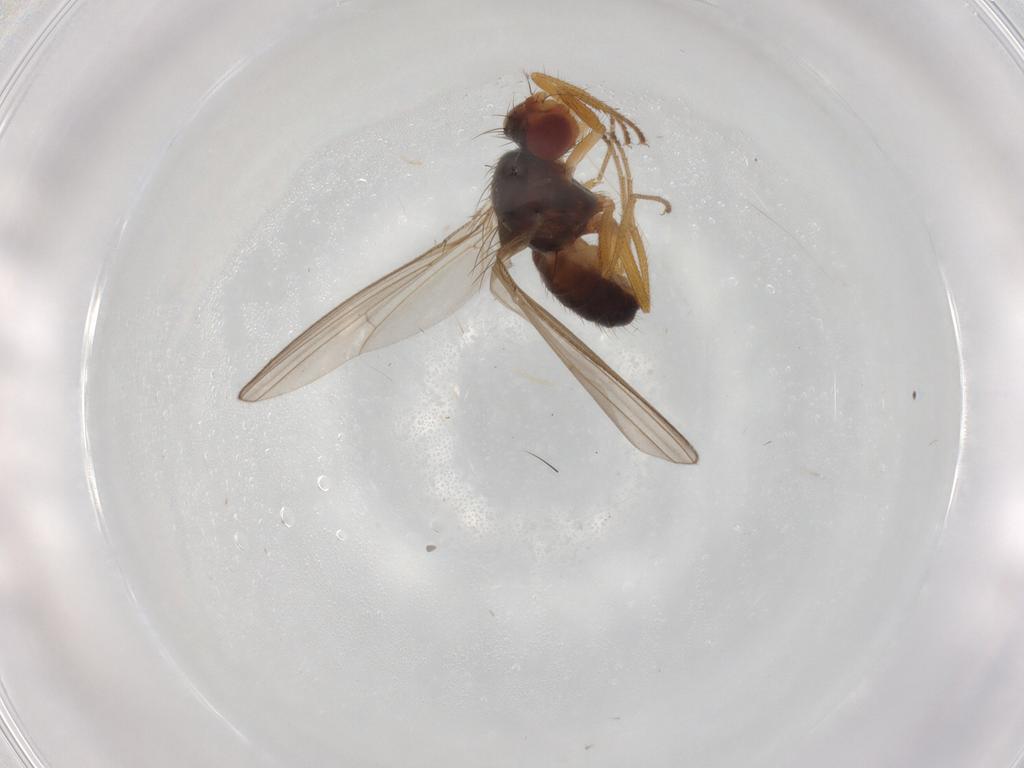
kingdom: Animalia
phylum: Arthropoda
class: Insecta
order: Diptera
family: Drosophilidae
